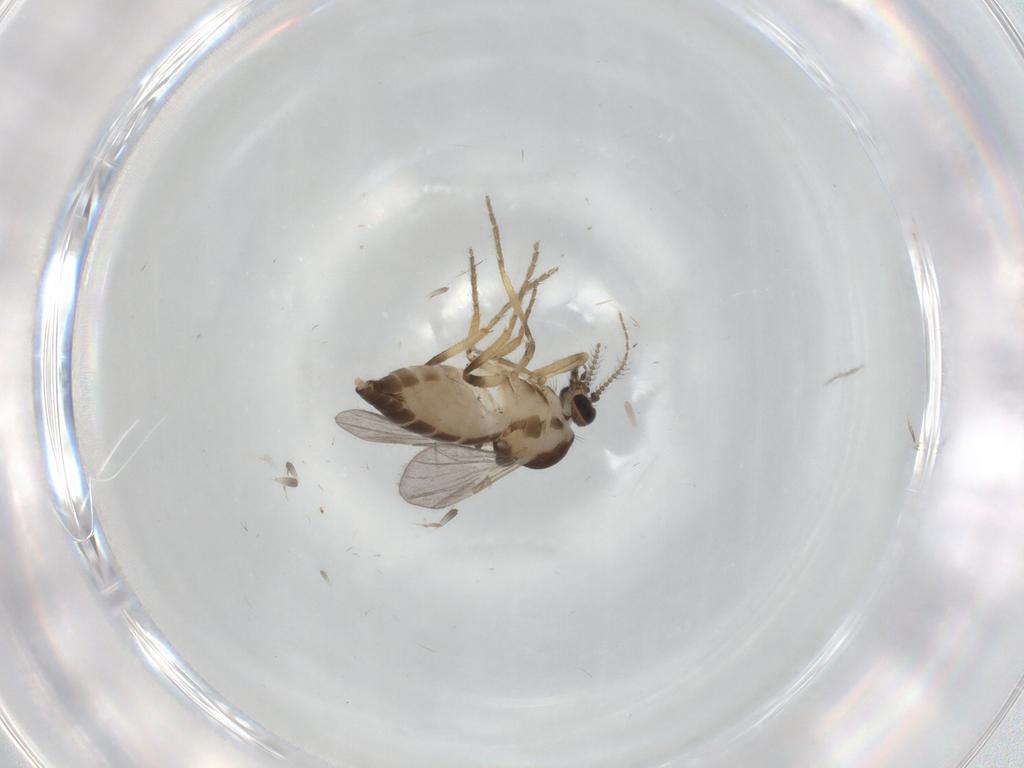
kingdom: Animalia
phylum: Arthropoda
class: Insecta
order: Diptera
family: Ceratopogonidae
